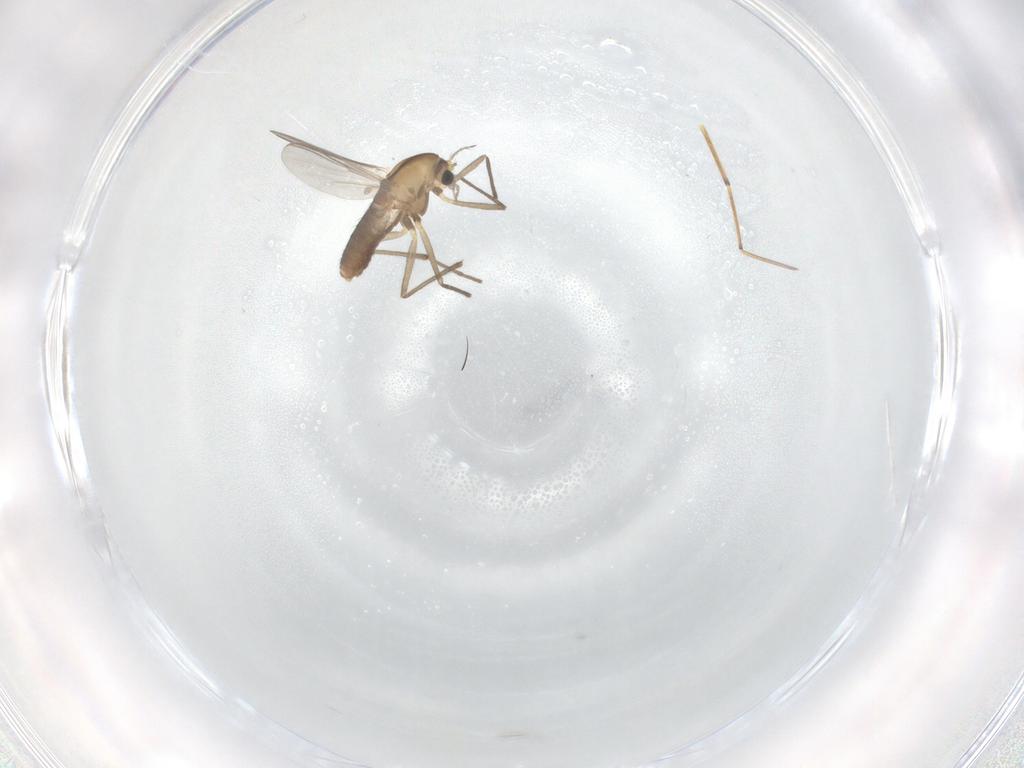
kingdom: Animalia
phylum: Arthropoda
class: Insecta
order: Diptera
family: Chironomidae
